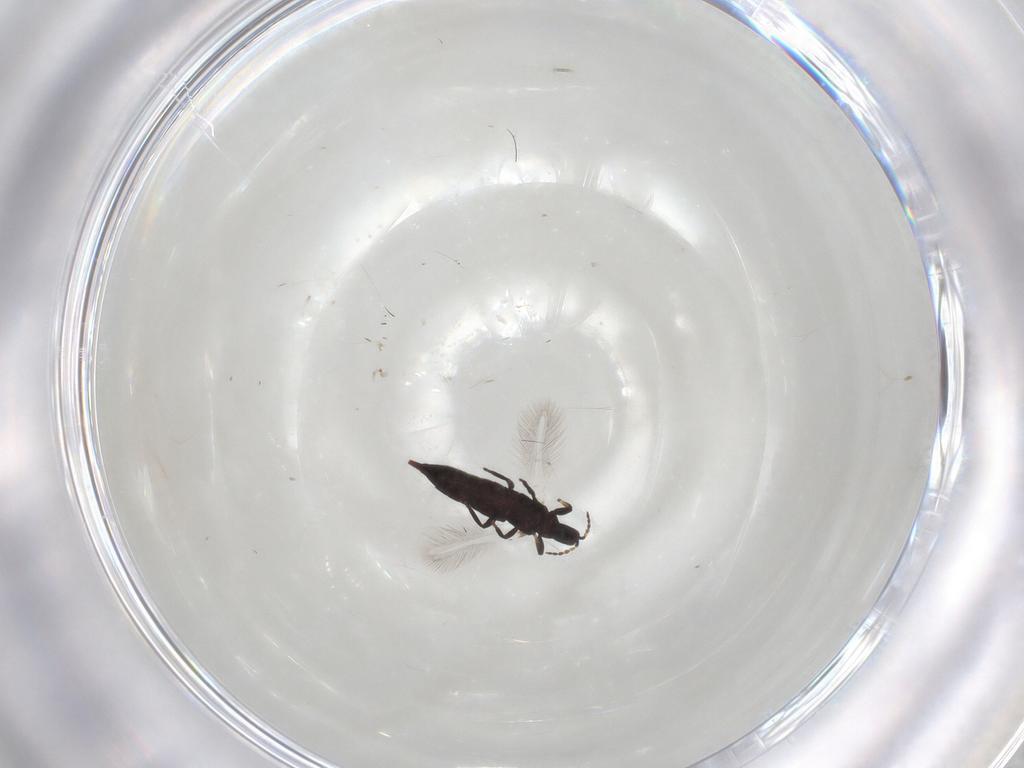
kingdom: Animalia
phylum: Arthropoda
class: Insecta
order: Thysanoptera
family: Phlaeothripidae
